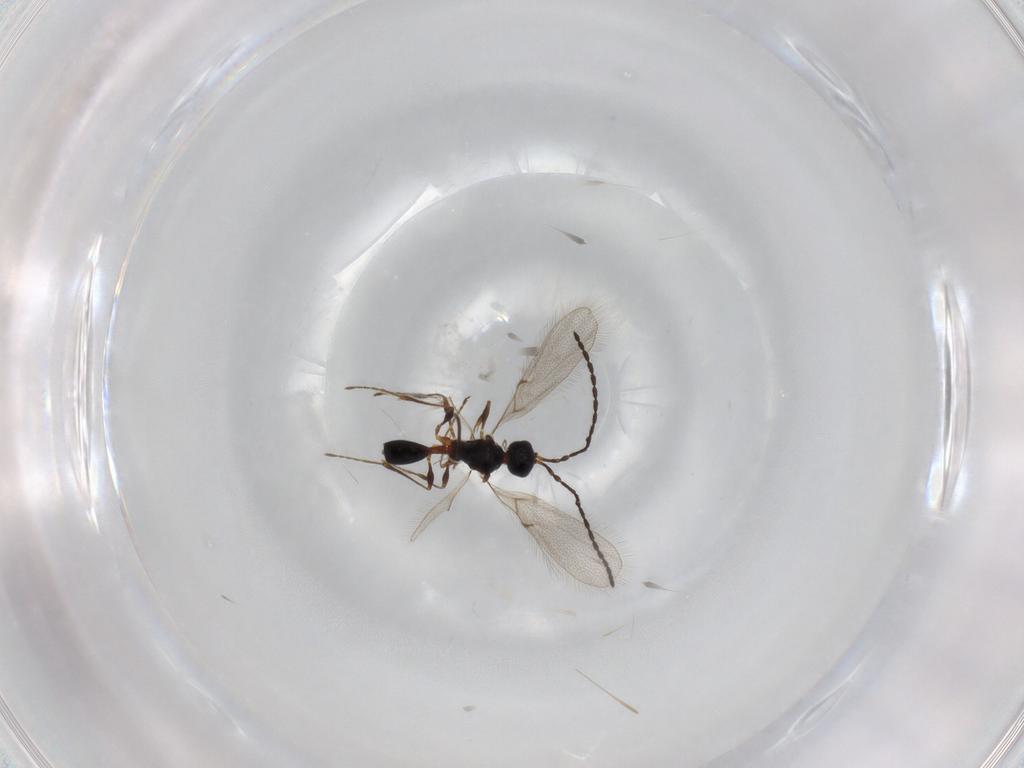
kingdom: Animalia
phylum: Arthropoda
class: Insecta
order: Hymenoptera
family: Diapriidae
